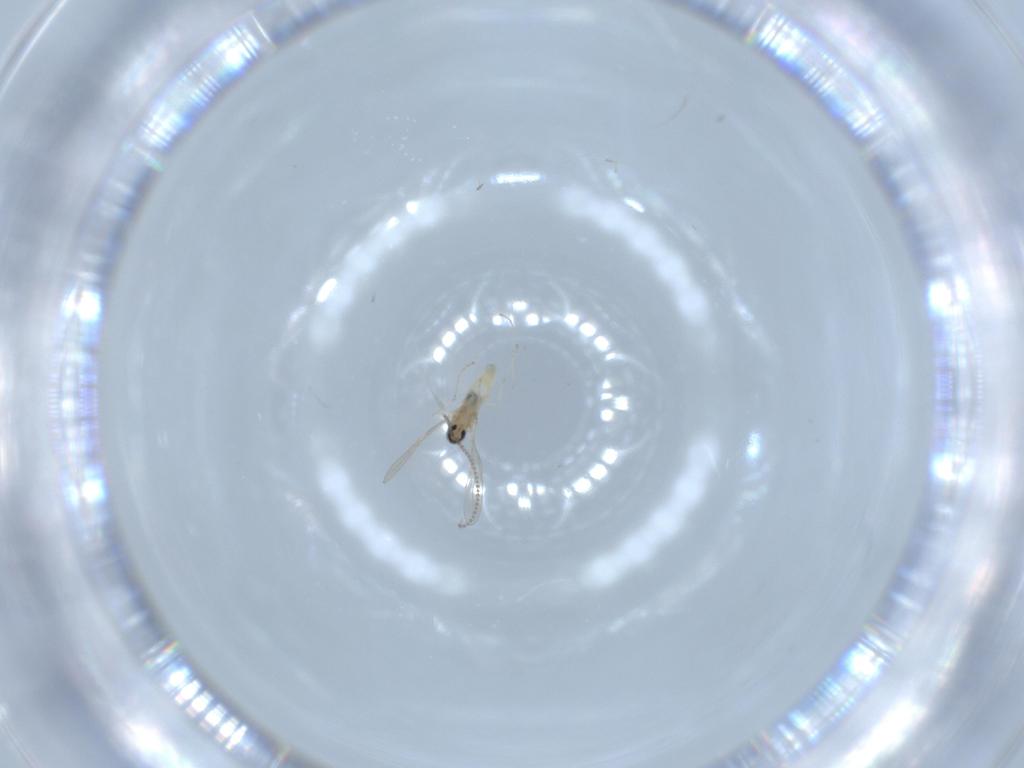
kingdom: Animalia
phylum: Arthropoda
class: Insecta
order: Diptera
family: Cecidomyiidae
